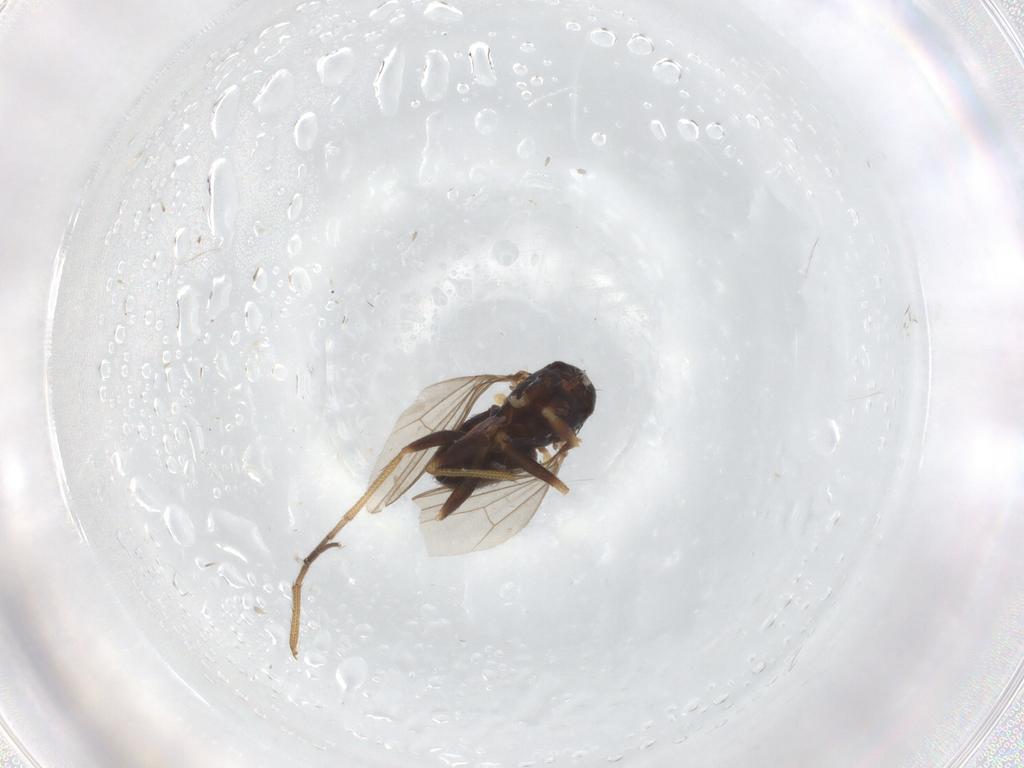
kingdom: Animalia
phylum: Arthropoda
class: Insecta
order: Diptera
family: Dolichopodidae
